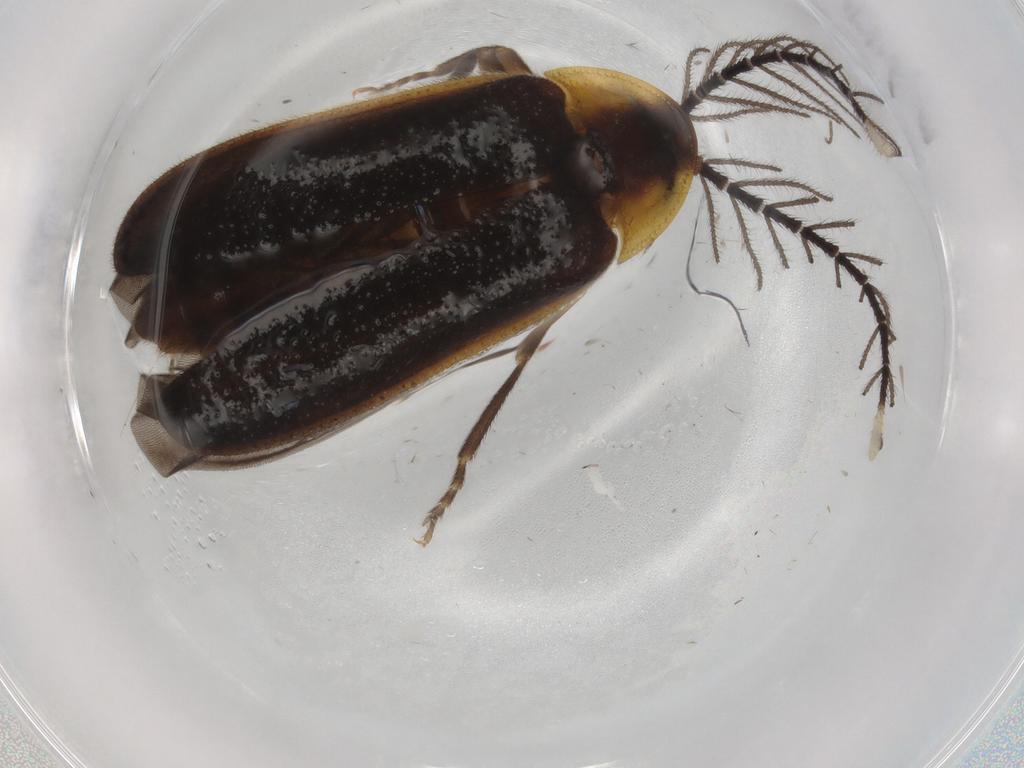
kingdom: Animalia
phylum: Arthropoda
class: Insecta
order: Coleoptera
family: Lampyridae
